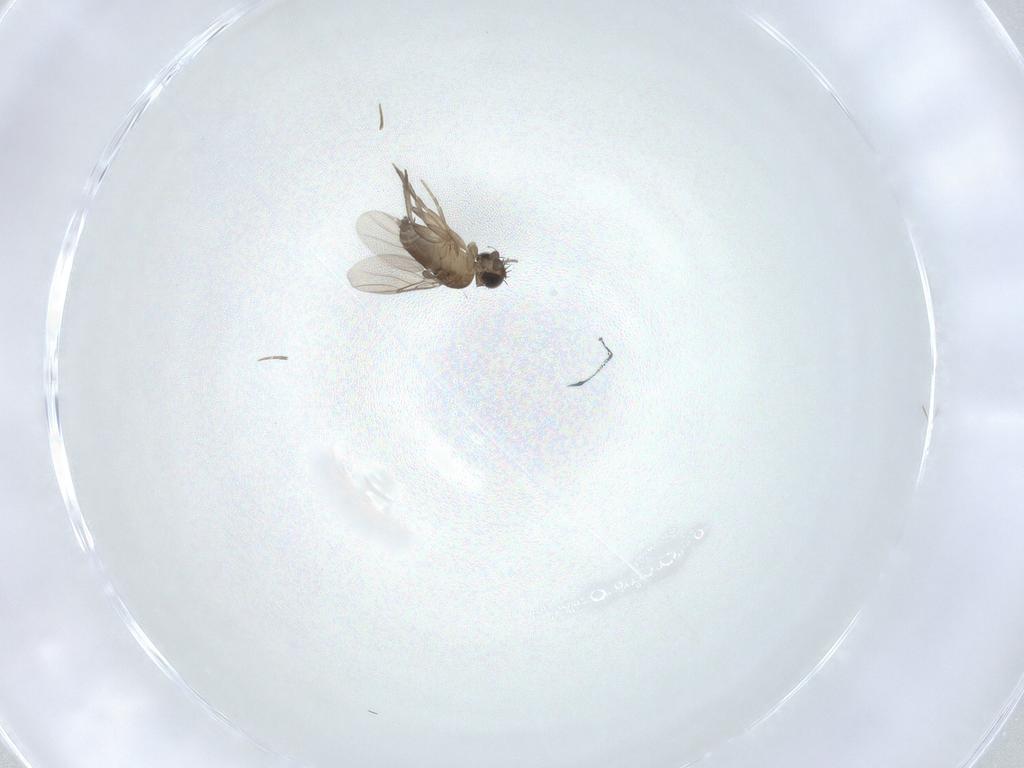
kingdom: Animalia
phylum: Arthropoda
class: Insecta
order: Diptera
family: Phoridae
